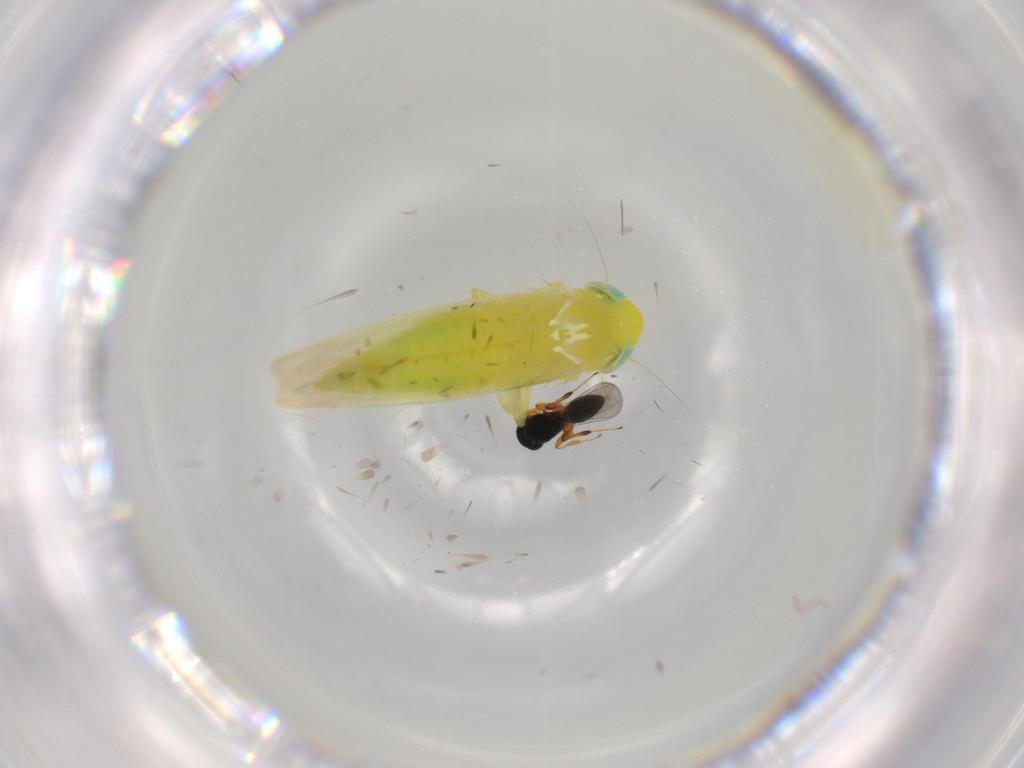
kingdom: Animalia
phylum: Arthropoda
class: Insecta
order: Hymenoptera
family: Platygastridae
